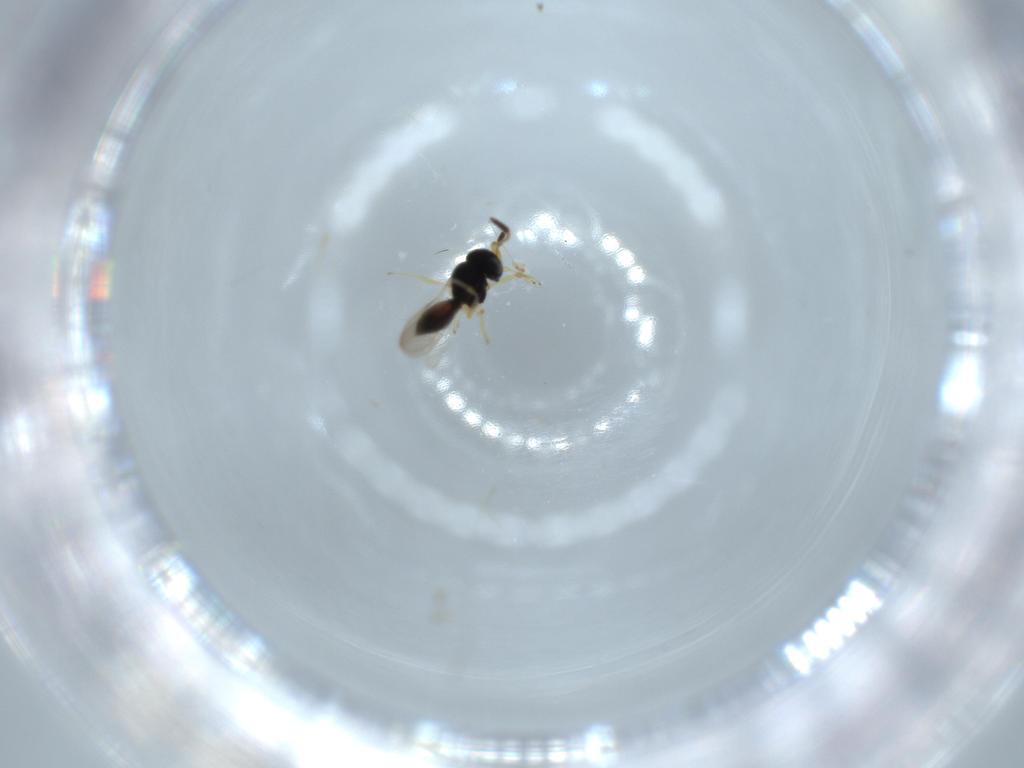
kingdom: Animalia
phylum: Arthropoda
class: Insecta
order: Hymenoptera
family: Scelionidae
